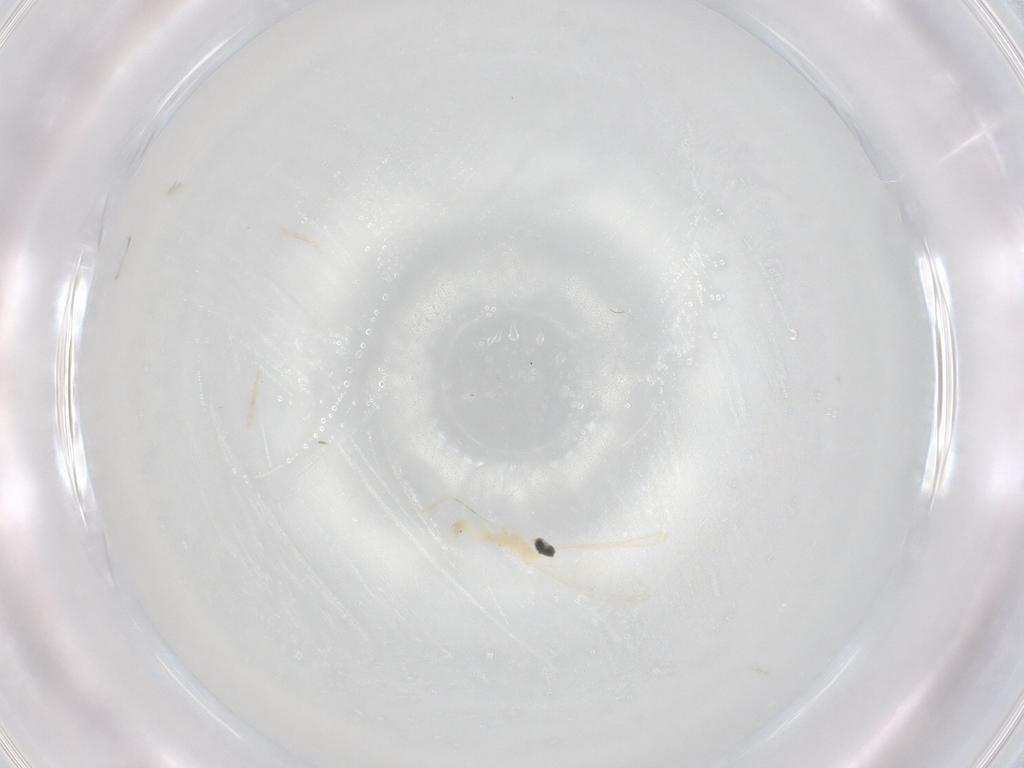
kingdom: Animalia
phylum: Arthropoda
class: Insecta
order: Diptera
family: Cecidomyiidae
